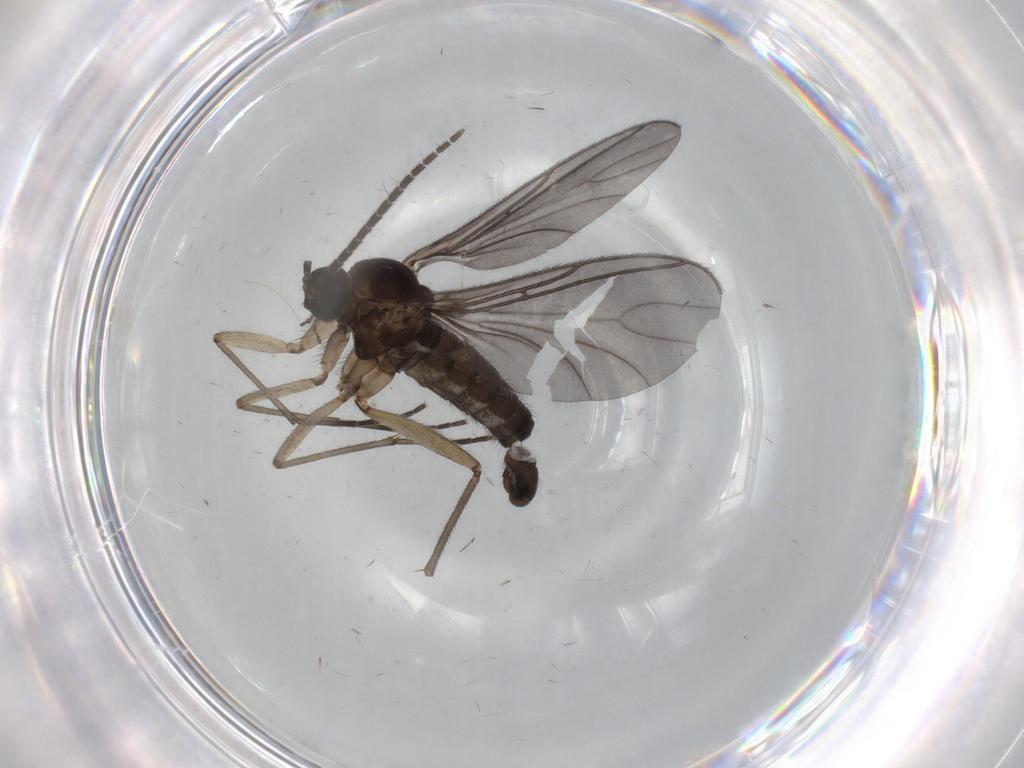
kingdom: Animalia
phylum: Arthropoda
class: Insecta
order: Diptera
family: Sciaridae
